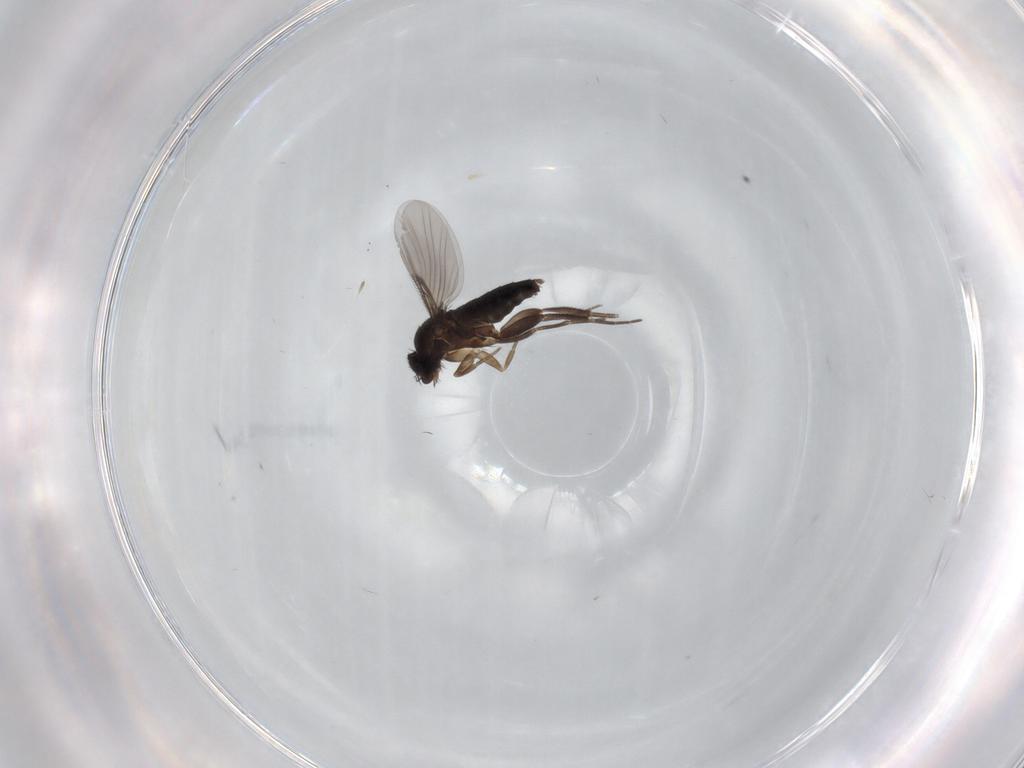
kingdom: Animalia
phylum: Arthropoda
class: Insecta
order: Diptera
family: Phoridae
